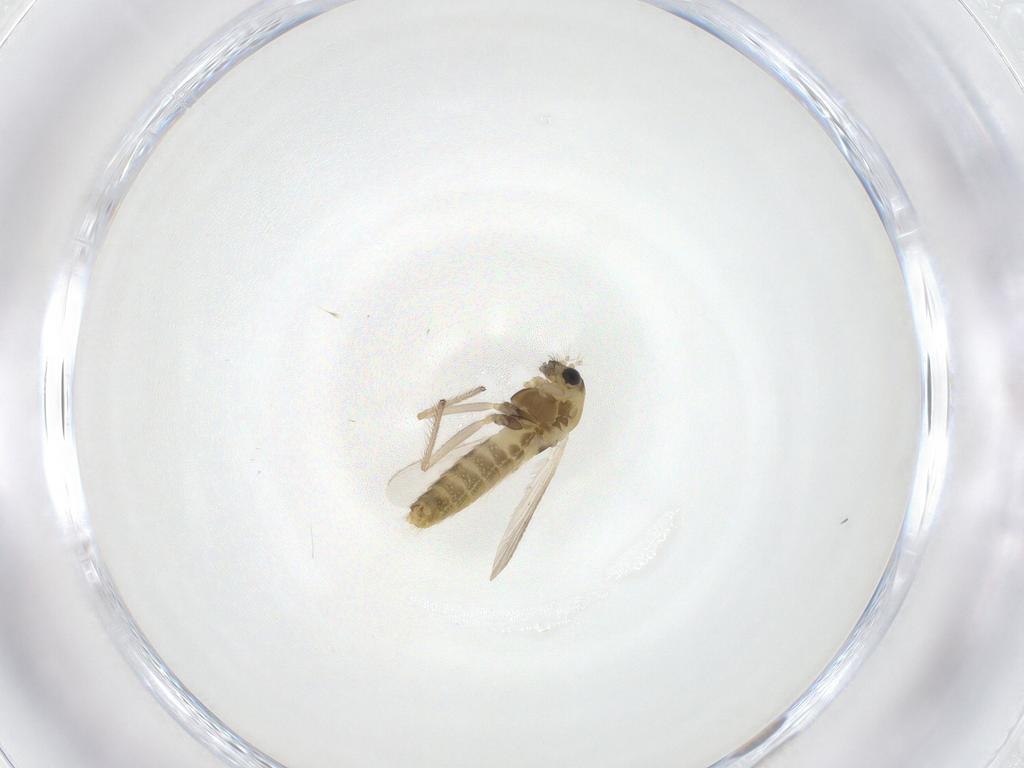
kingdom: Animalia
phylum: Arthropoda
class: Insecta
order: Diptera
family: Chironomidae
